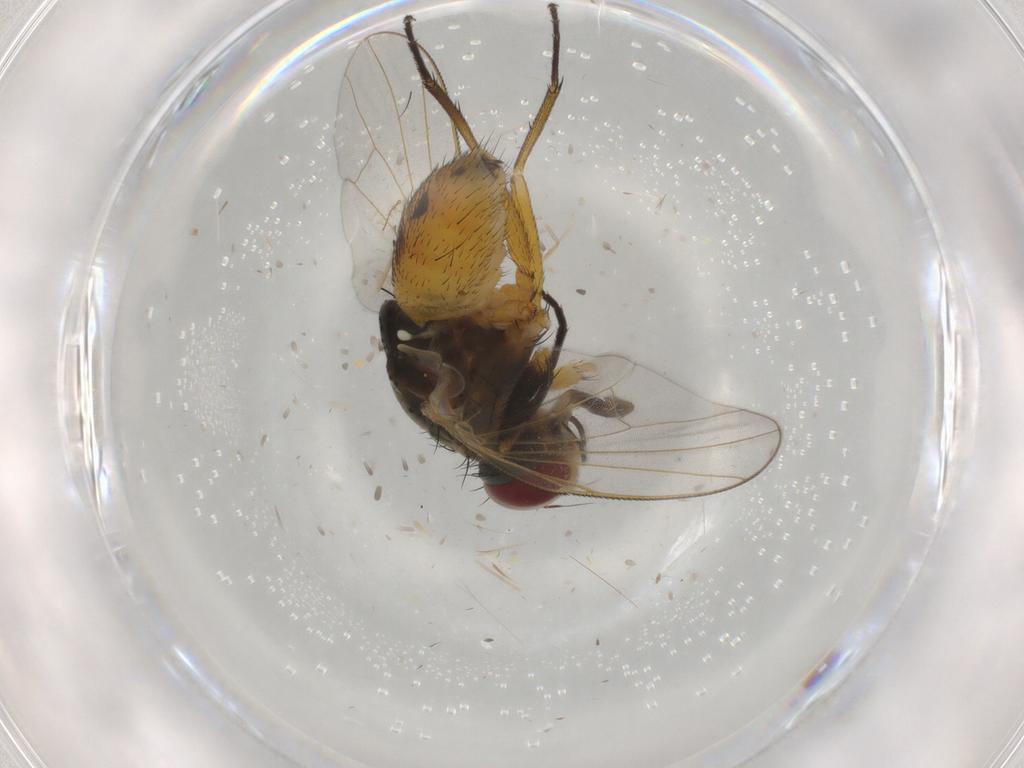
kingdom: Animalia
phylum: Arthropoda
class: Insecta
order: Diptera
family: Muscidae
